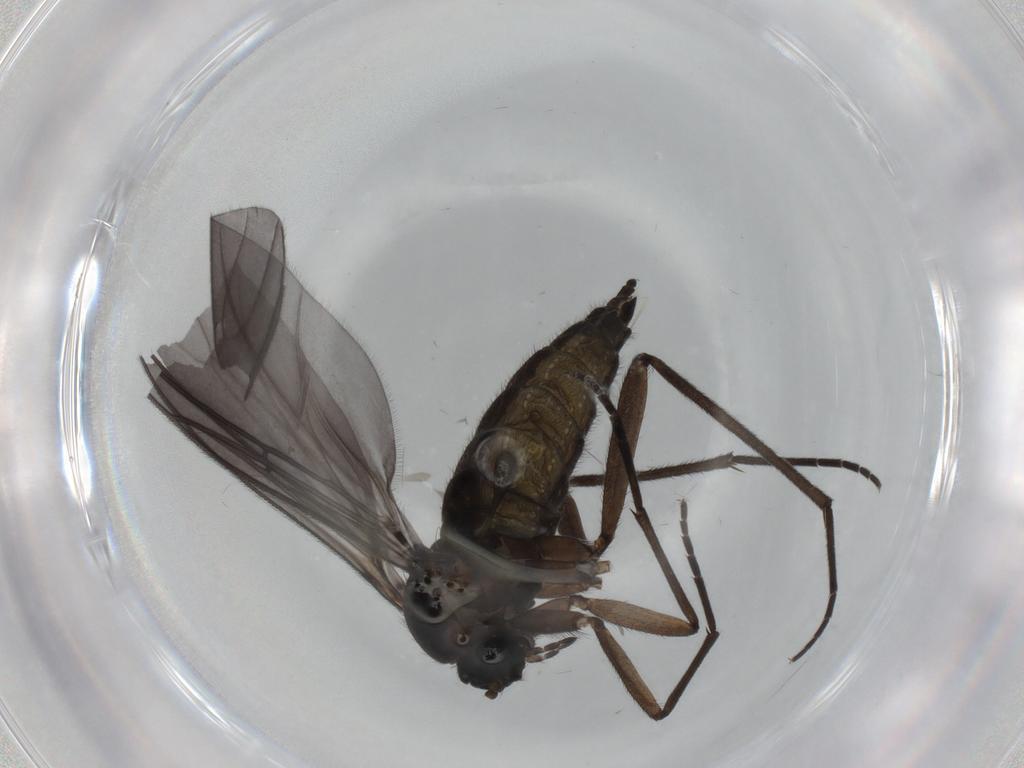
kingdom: Animalia
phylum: Arthropoda
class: Insecta
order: Diptera
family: Sciaridae
